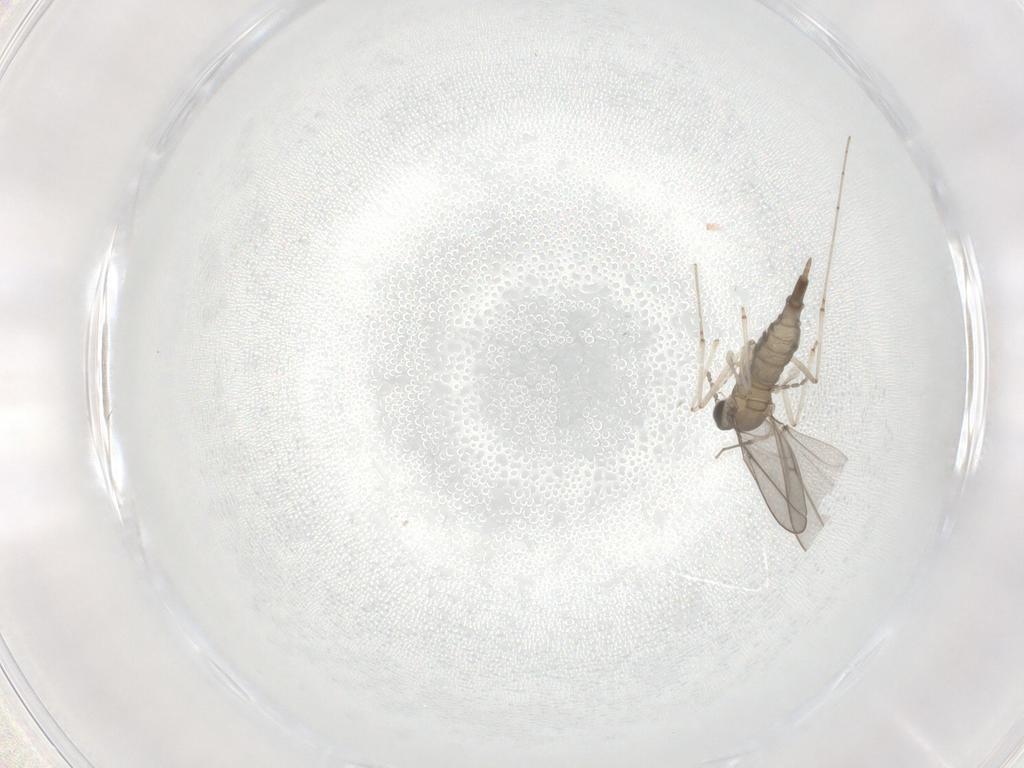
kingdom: Animalia
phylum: Arthropoda
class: Insecta
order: Diptera
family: Cecidomyiidae
